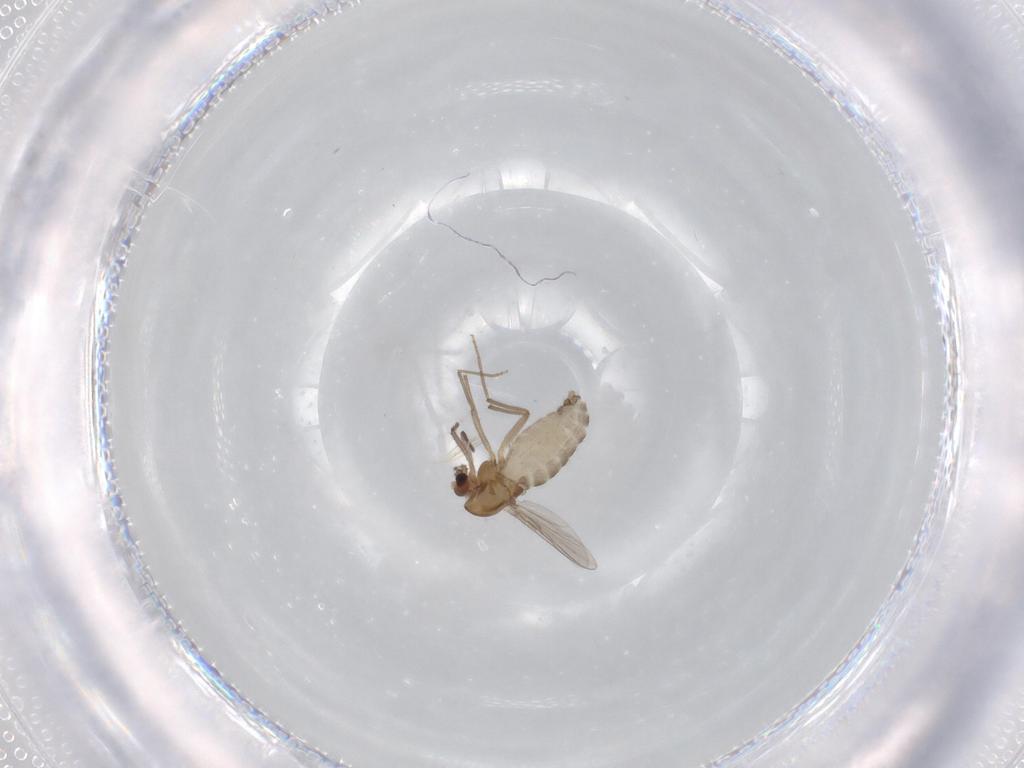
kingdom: Animalia
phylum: Arthropoda
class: Insecta
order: Diptera
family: Chironomidae
